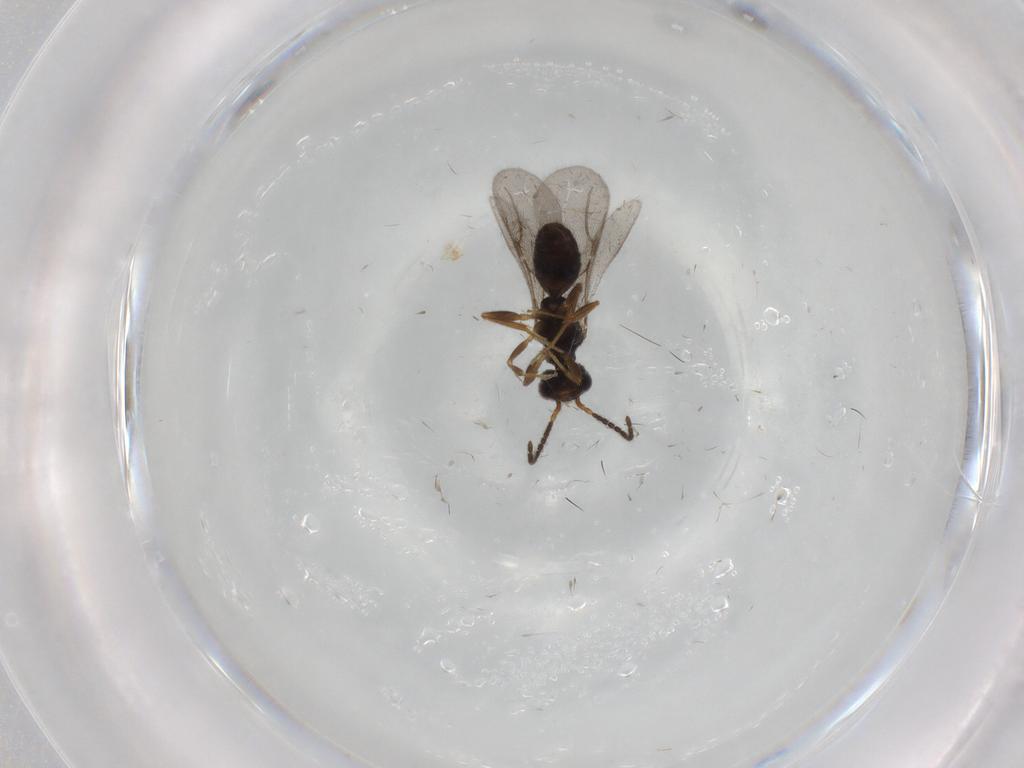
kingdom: Animalia
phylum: Arthropoda
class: Insecta
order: Hymenoptera
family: Bethylidae
